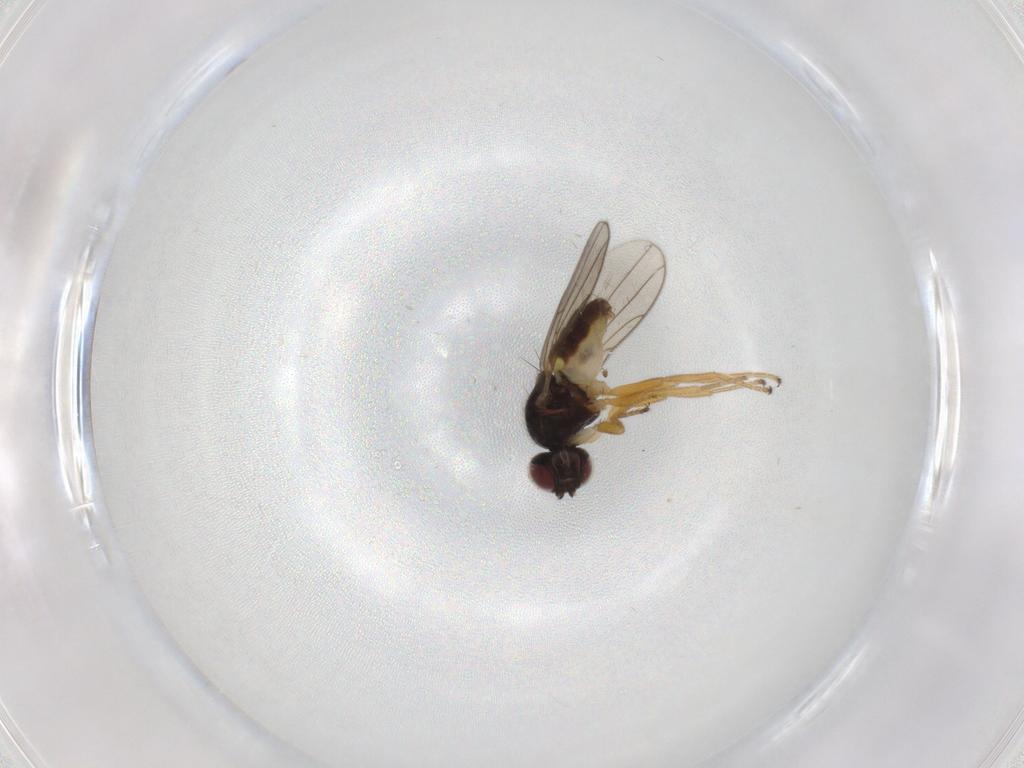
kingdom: Animalia
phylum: Arthropoda
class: Insecta
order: Diptera
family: Chloropidae
